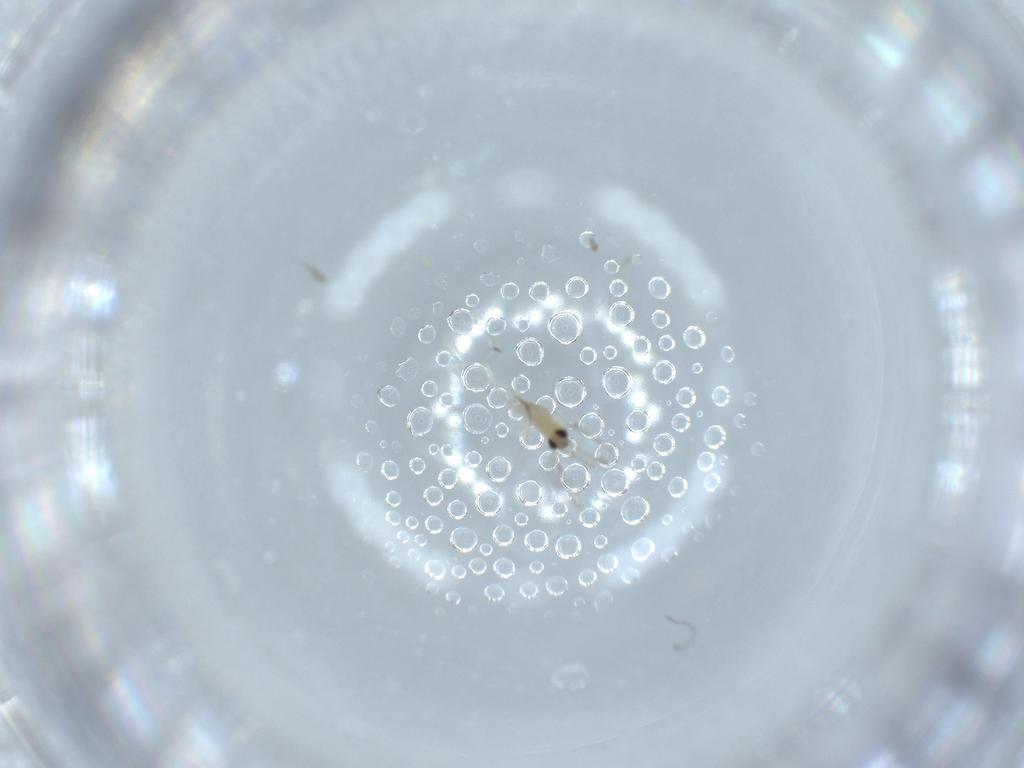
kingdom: Animalia
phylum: Arthropoda
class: Insecta
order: Diptera
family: Cecidomyiidae
